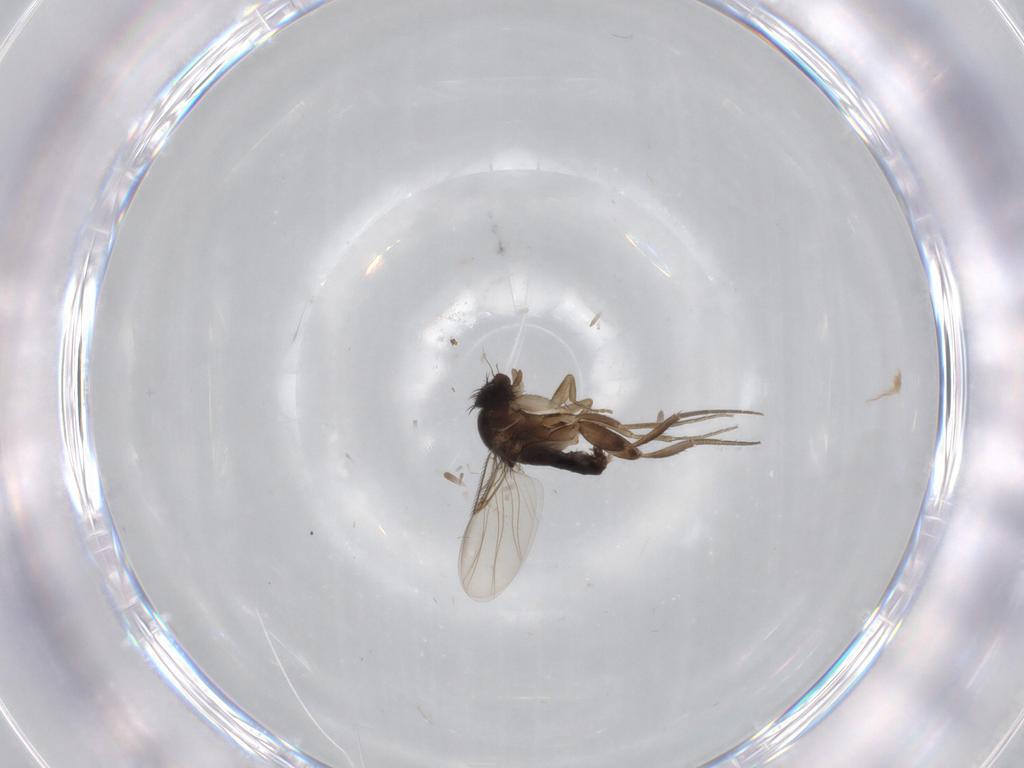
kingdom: Animalia
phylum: Arthropoda
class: Insecta
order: Diptera
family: Phoridae
